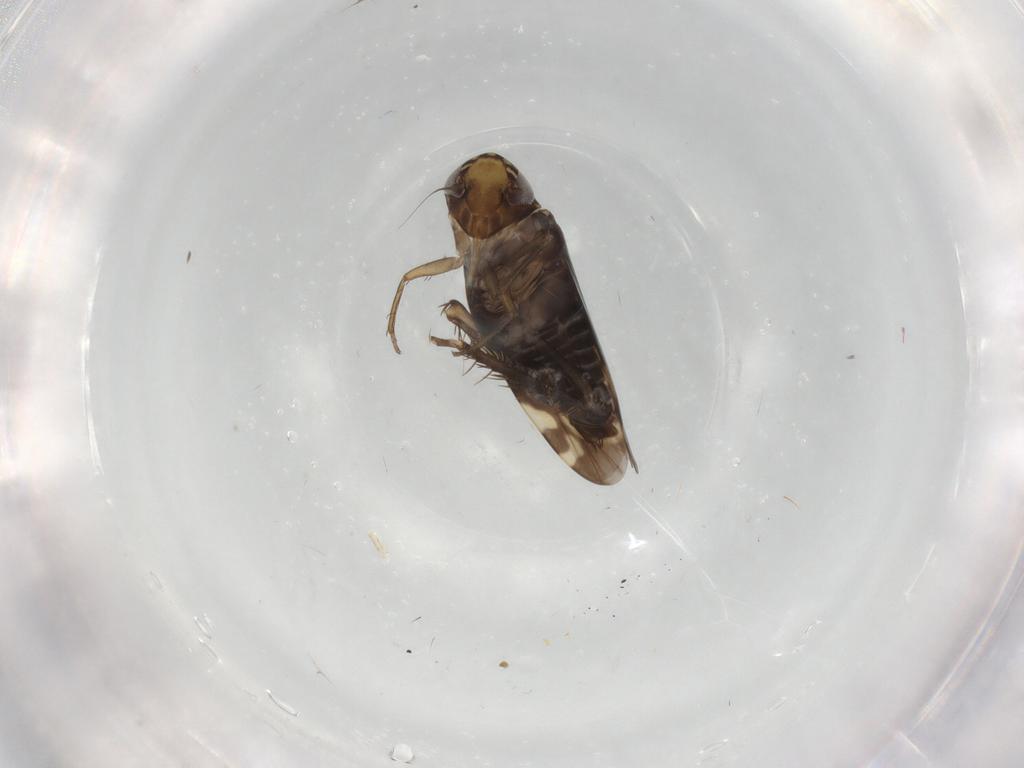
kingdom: Animalia
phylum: Arthropoda
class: Insecta
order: Hemiptera
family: Cicadellidae
